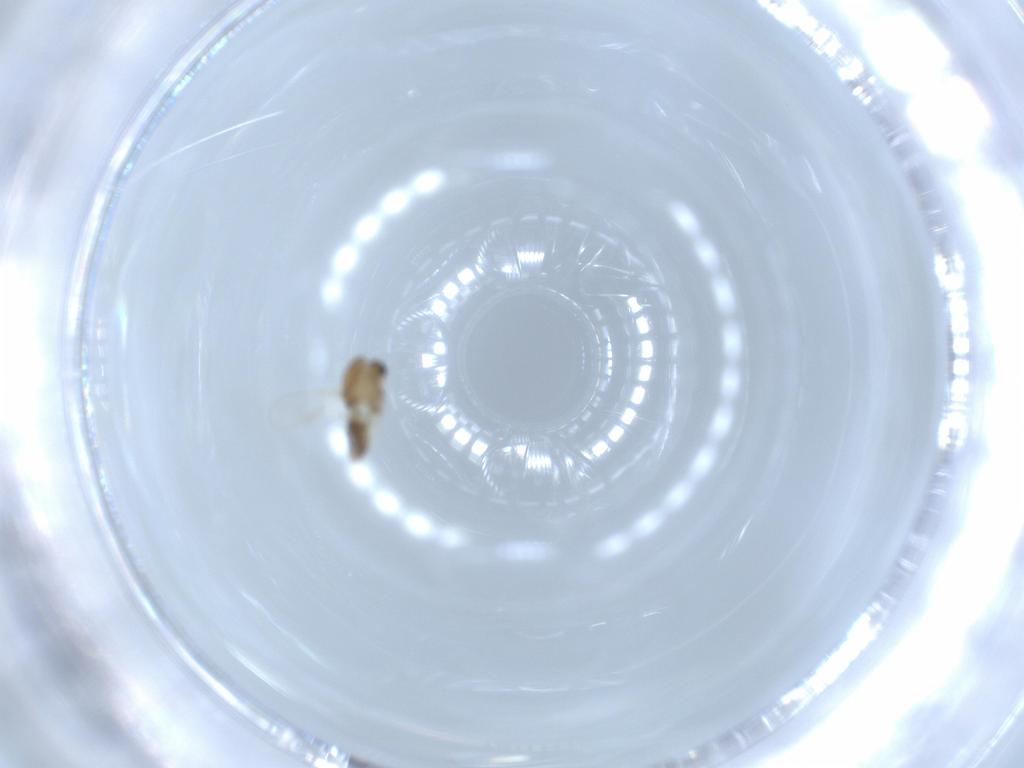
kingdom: Animalia
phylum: Arthropoda
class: Insecta
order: Diptera
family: Chironomidae
